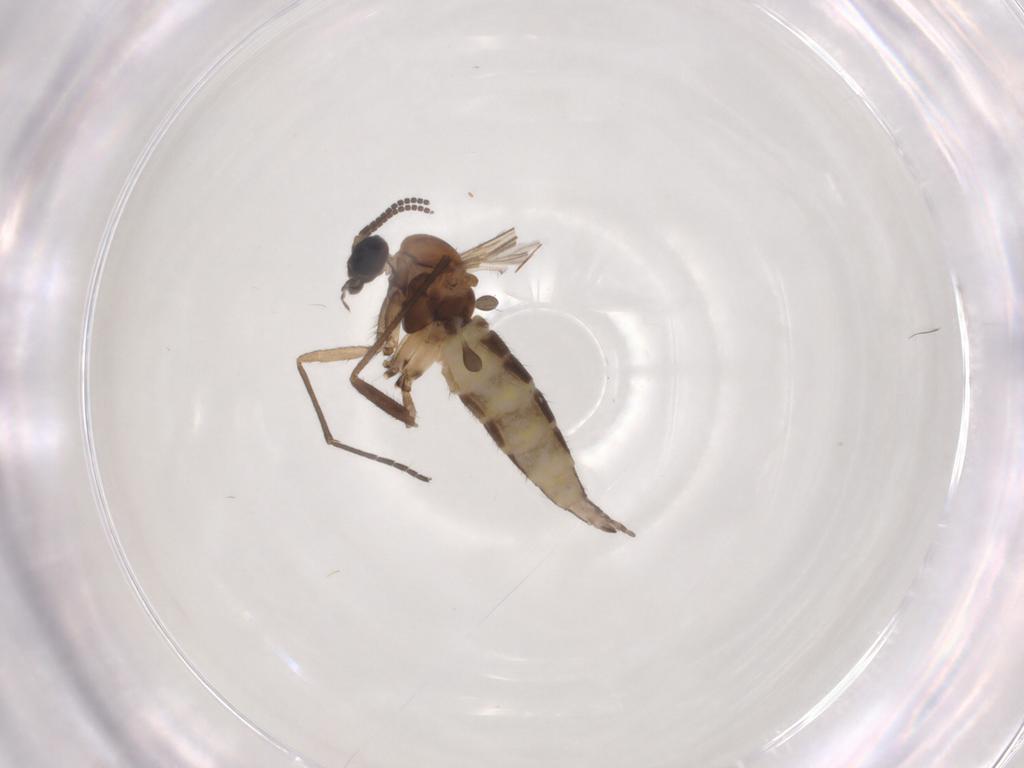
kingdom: Animalia
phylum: Arthropoda
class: Insecta
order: Diptera
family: Sciaridae
